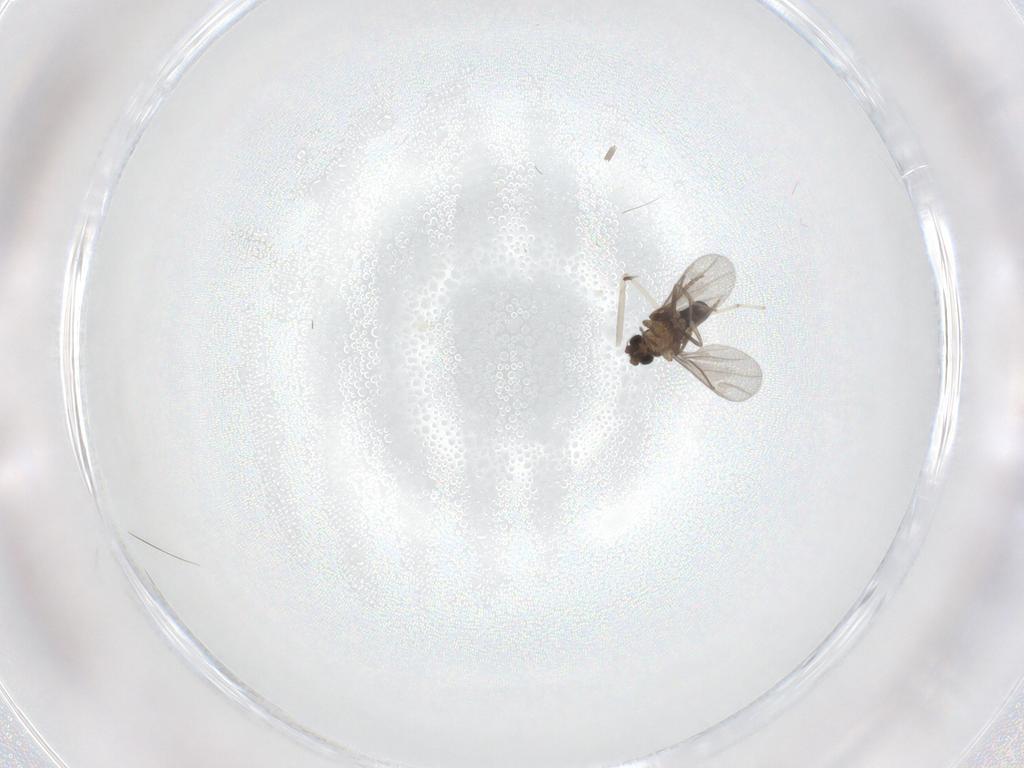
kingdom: Animalia
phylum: Arthropoda
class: Insecta
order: Diptera
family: Cecidomyiidae
